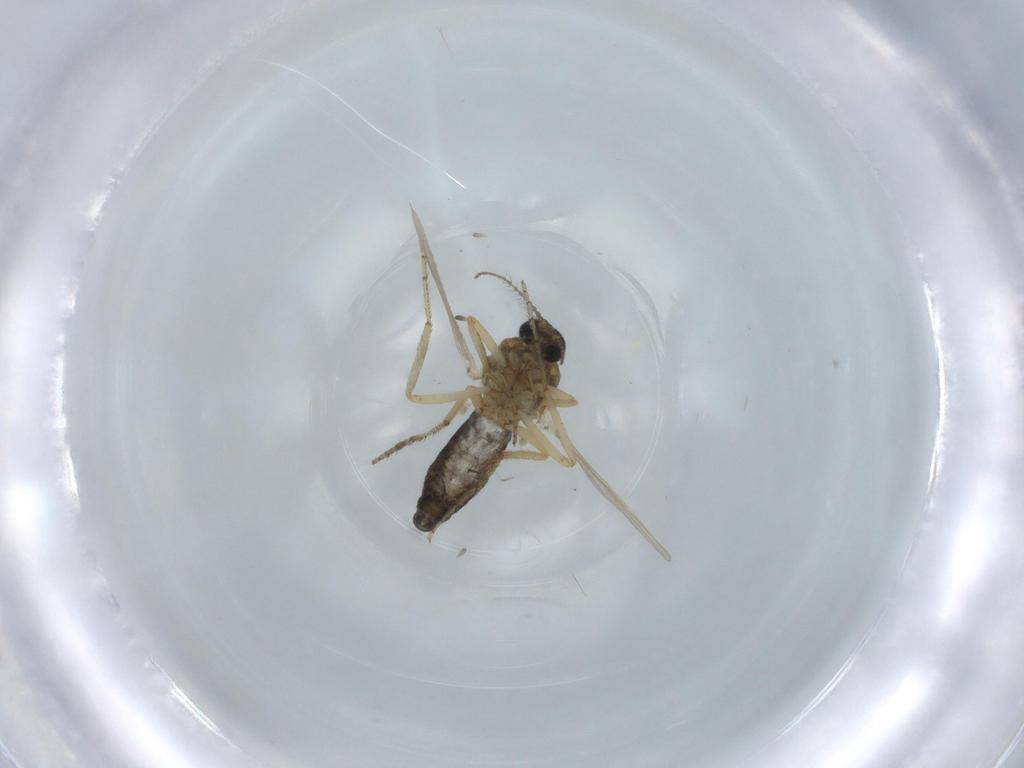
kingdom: Animalia
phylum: Arthropoda
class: Insecta
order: Diptera
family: Ceratopogonidae
